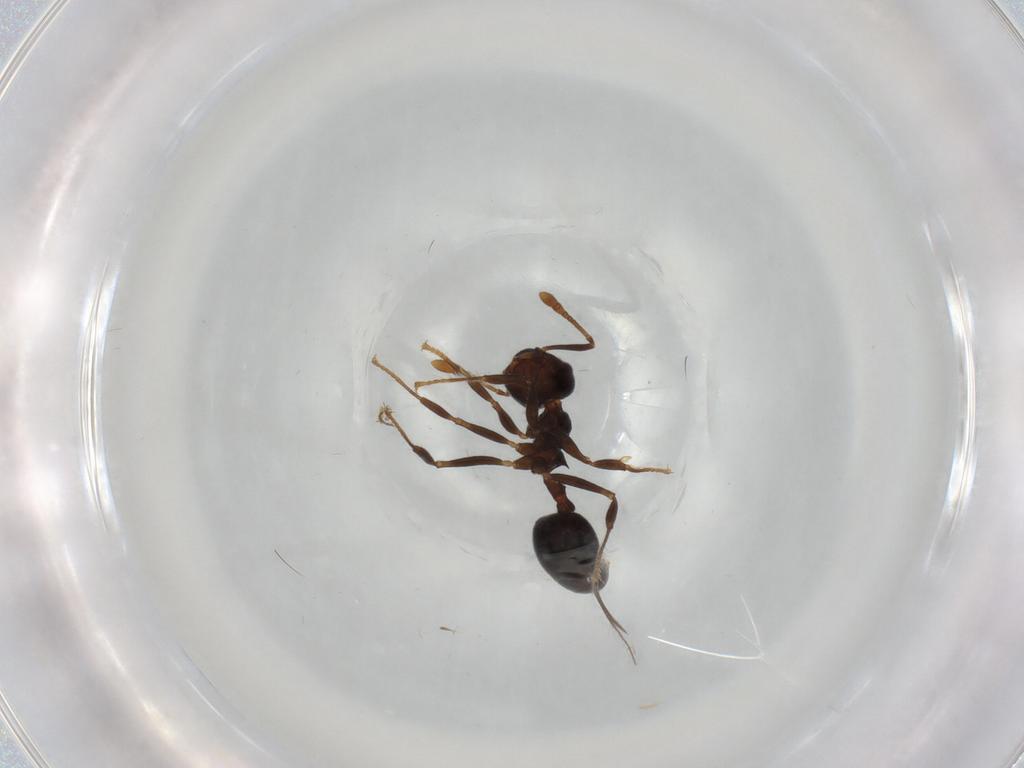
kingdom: Animalia
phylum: Arthropoda
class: Insecta
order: Hymenoptera
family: Formicidae
